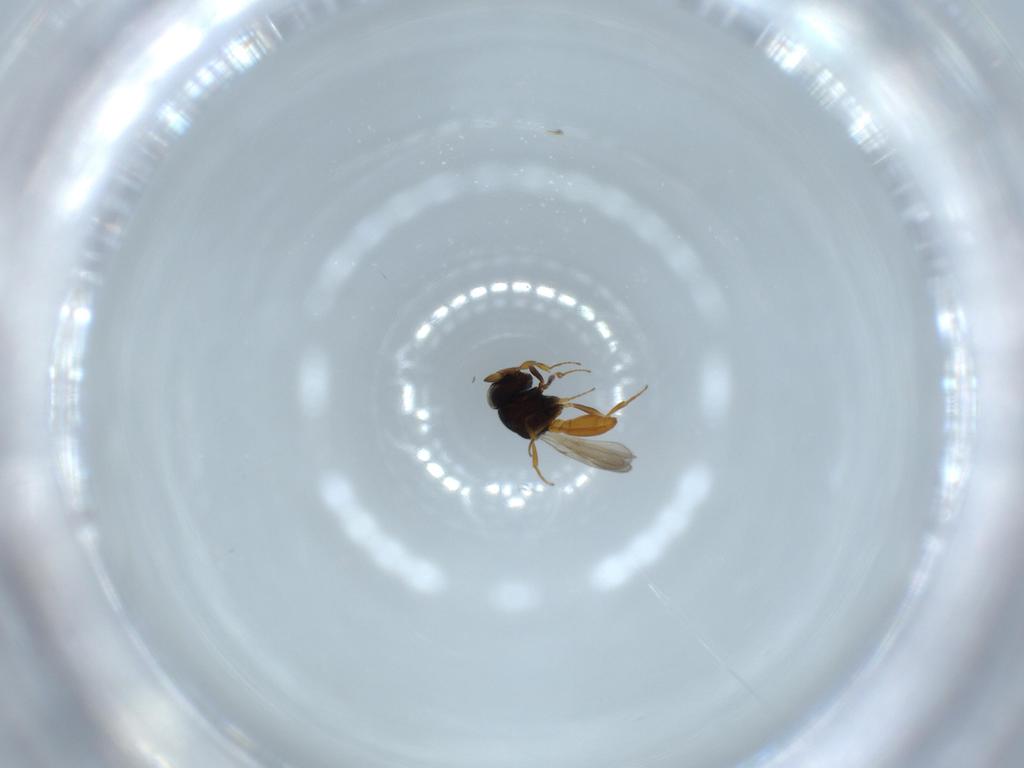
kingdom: Animalia
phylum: Arthropoda
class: Insecta
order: Hymenoptera
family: Scelionidae
